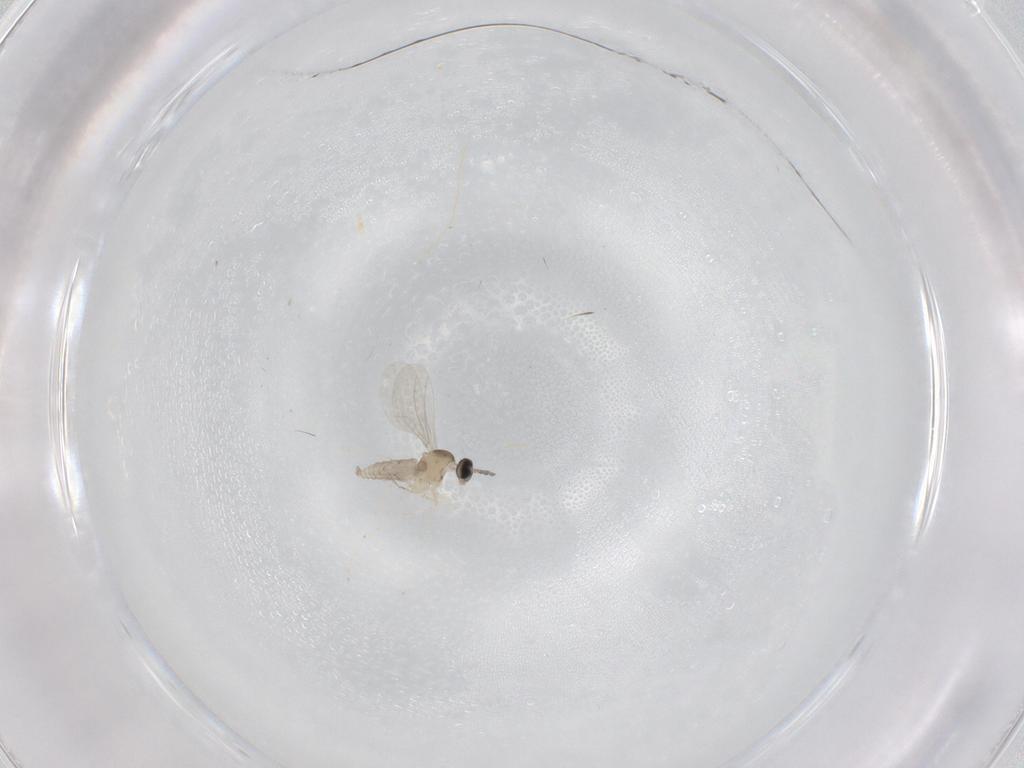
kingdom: Animalia
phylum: Arthropoda
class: Insecta
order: Diptera
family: Cecidomyiidae
